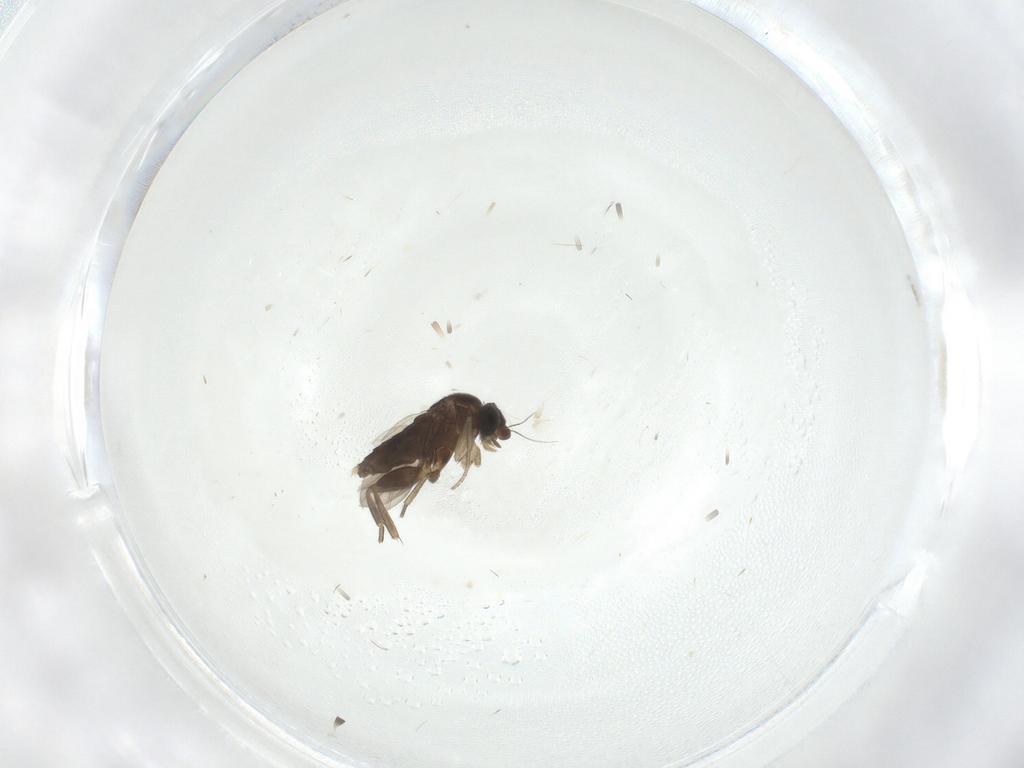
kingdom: Animalia
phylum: Arthropoda
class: Insecta
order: Diptera
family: Phoridae
